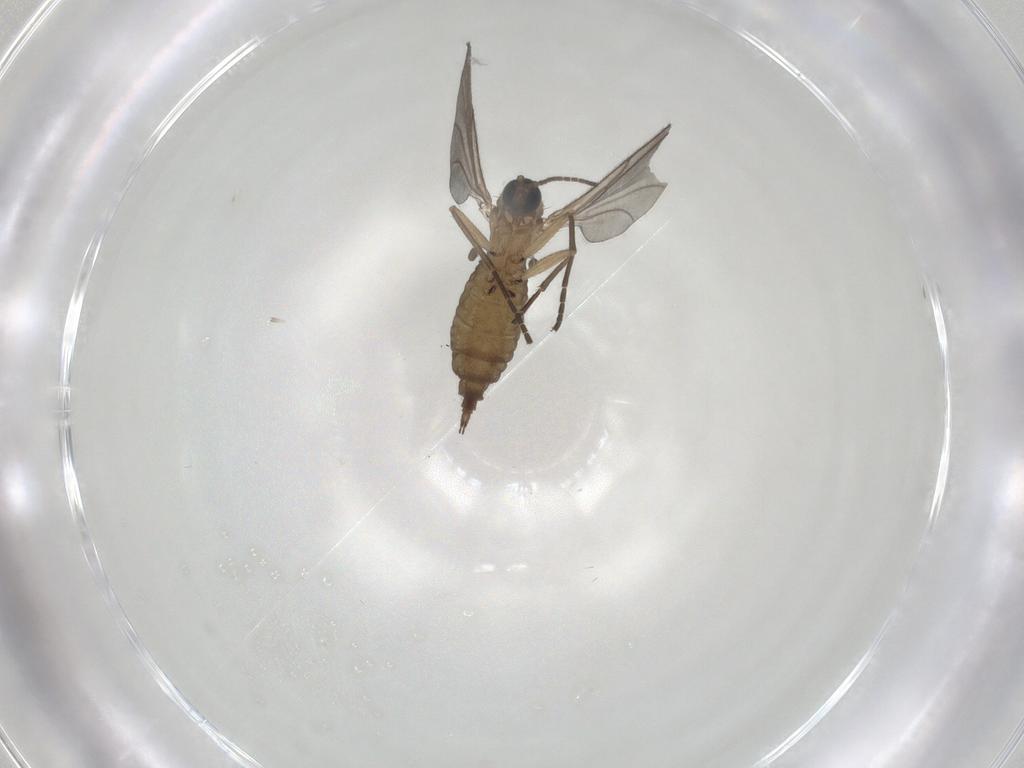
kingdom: Animalia
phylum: Arthropoda
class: Insecta
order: Diptera
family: Sciaridae
